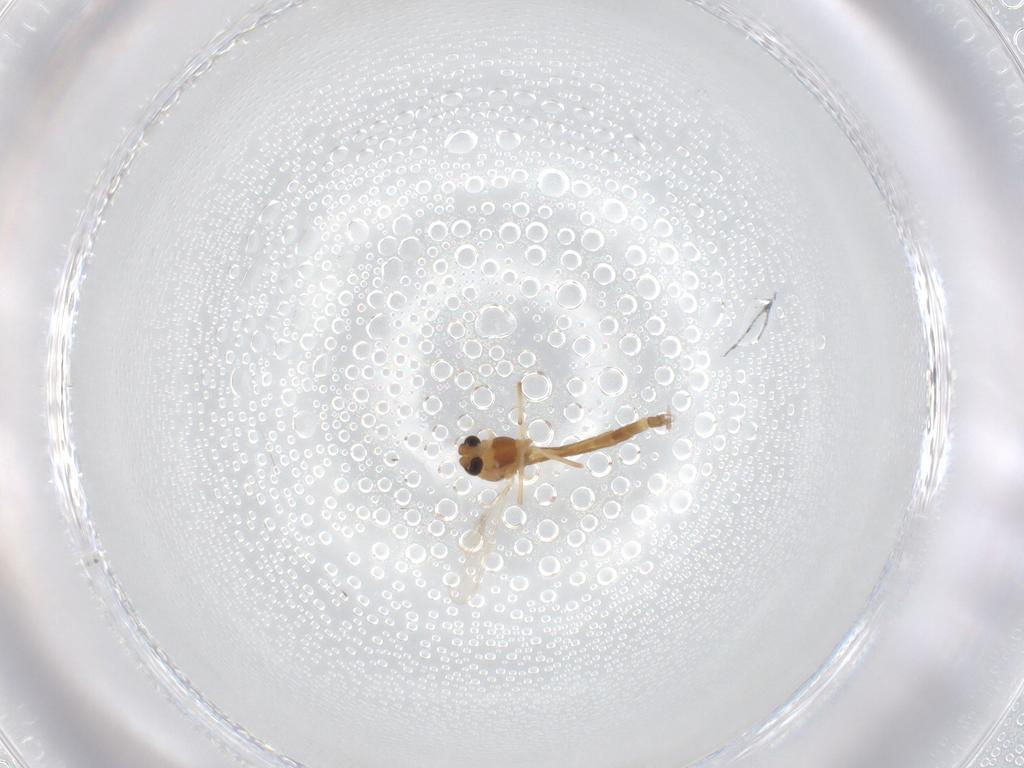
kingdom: Animalia
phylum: Arthropoda
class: Insecta
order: Diptera
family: Chironomidae
